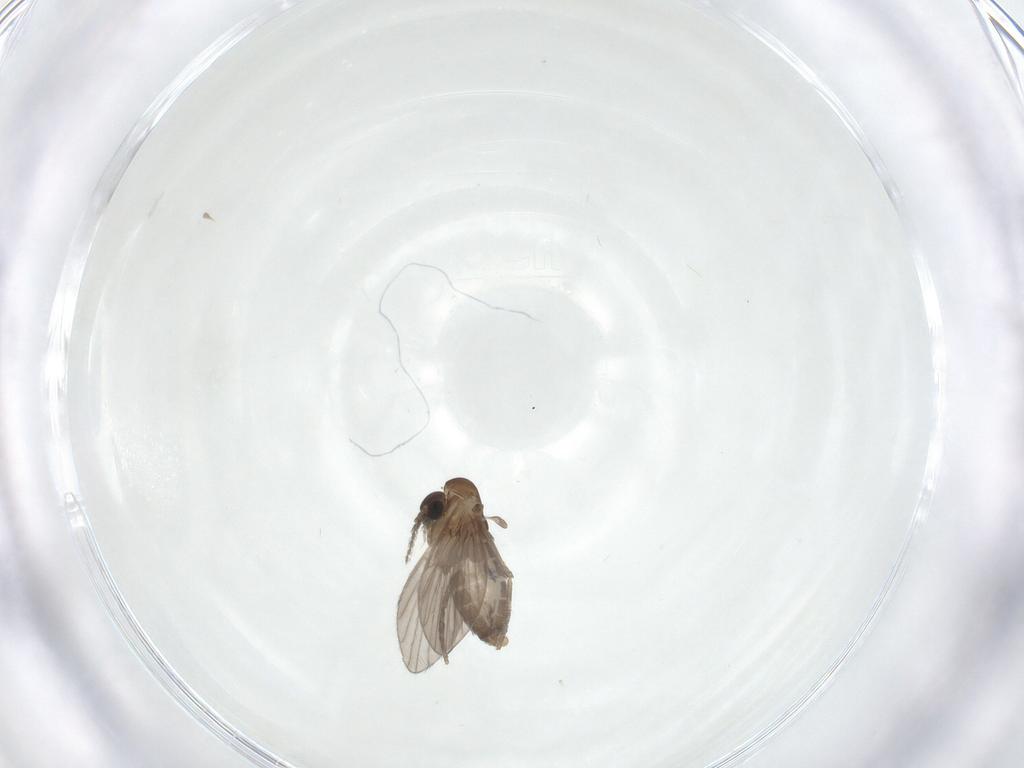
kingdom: Animalia
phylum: Arthropoda
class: Insecta
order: Diptera
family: Psychodidae
